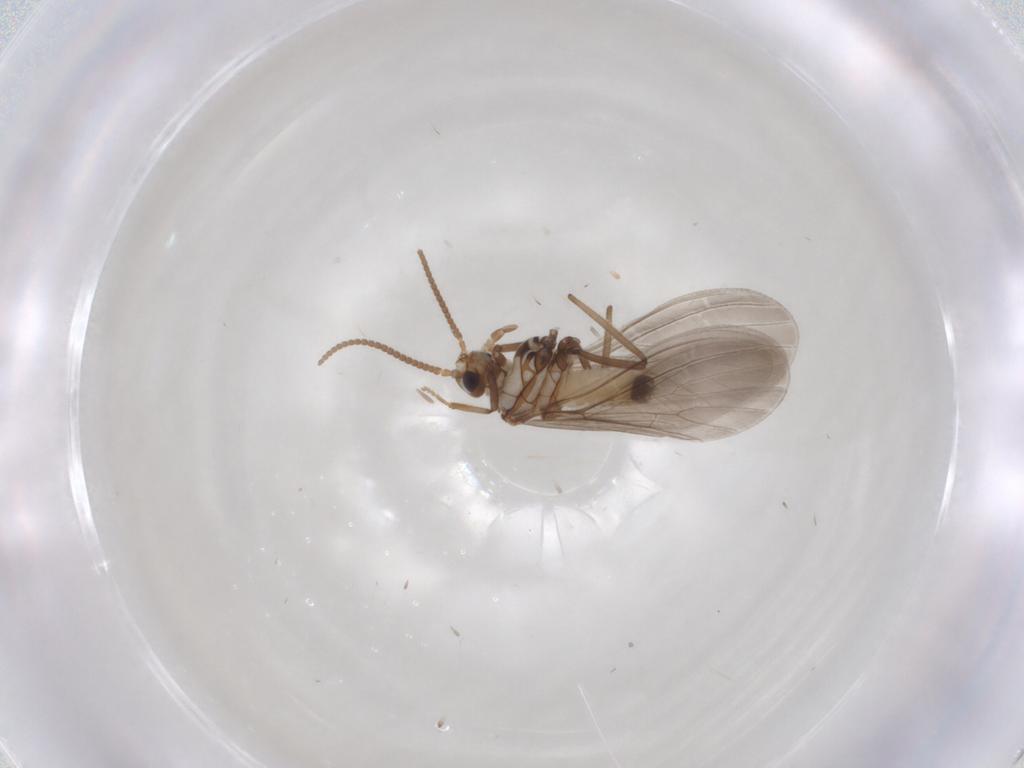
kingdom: Animalia
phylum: Arthropoda
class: Insecta
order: Neuroptera
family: Coniopterygidae
